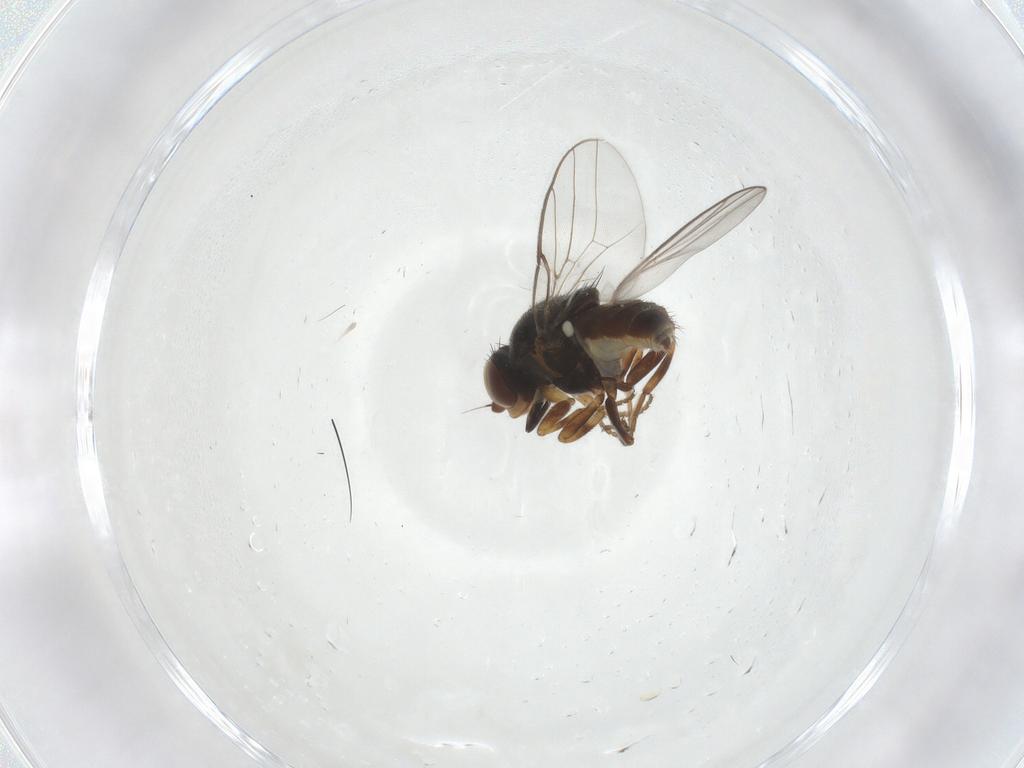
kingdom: Animalia
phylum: Arthropoda
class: Insecta
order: Diptera
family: Chloropidae
